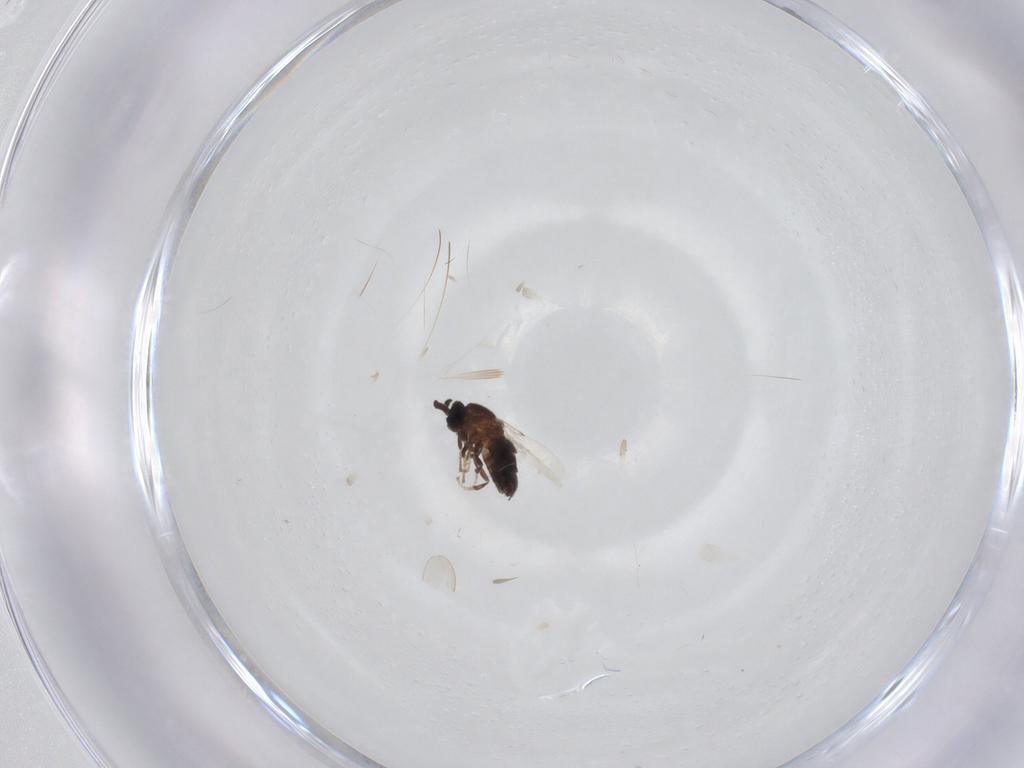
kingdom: Animalia
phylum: Arthropoda
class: Insecta
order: Diptera
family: Scatopsidae
